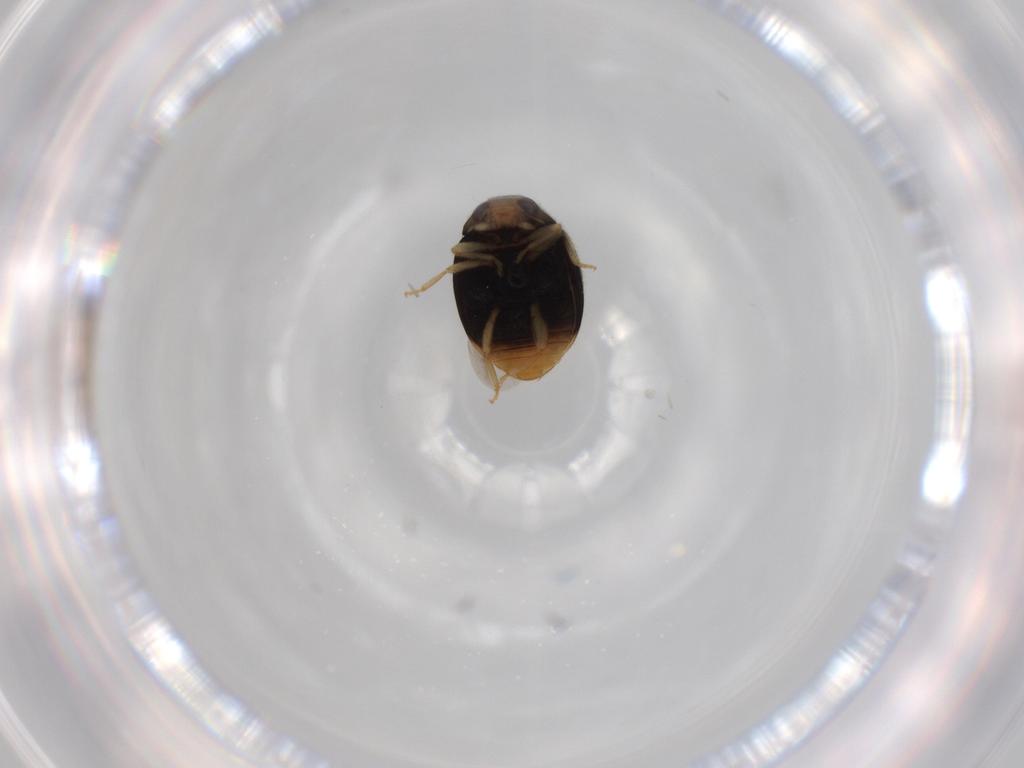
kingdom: Animalia
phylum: Arthropoda
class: Insecta
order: Coleoptera
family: Coccinellidae
